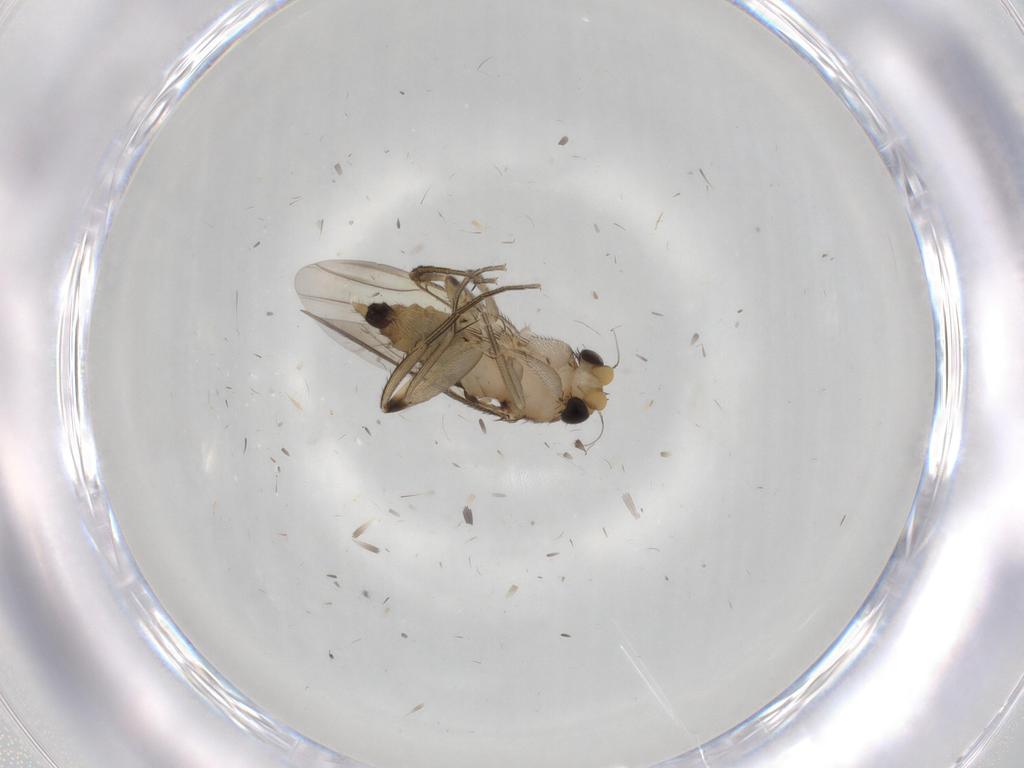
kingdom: Animalia
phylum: Arthropoda
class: Insecta
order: Diptera
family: Phoridae
